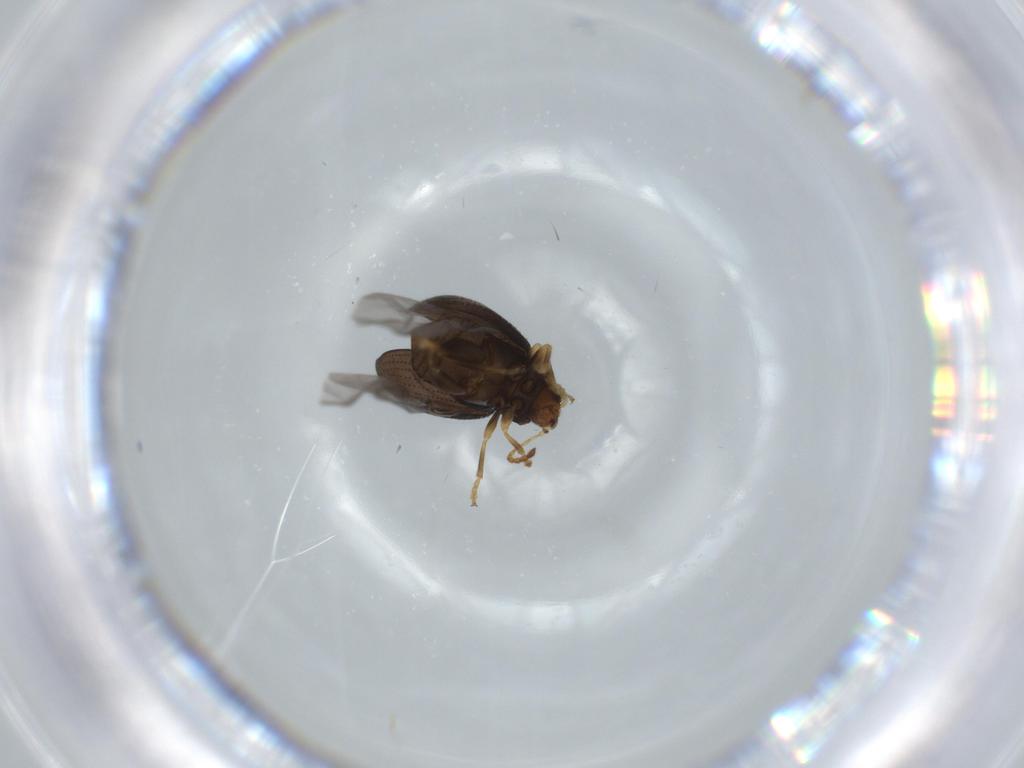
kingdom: Animalia
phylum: Arthropoda
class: Insecta
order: Coleoptera
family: Chrysomelidae
